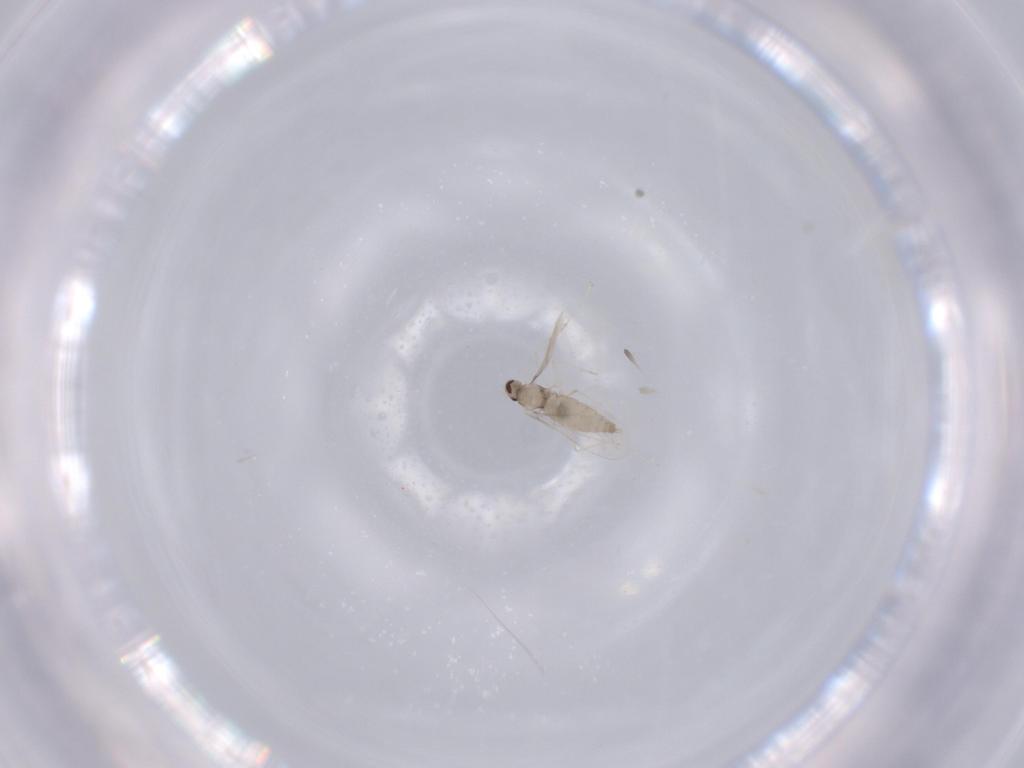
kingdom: Animalia
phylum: Arthropoda
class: Insecta
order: Diptera
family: Cecidomyiidae
